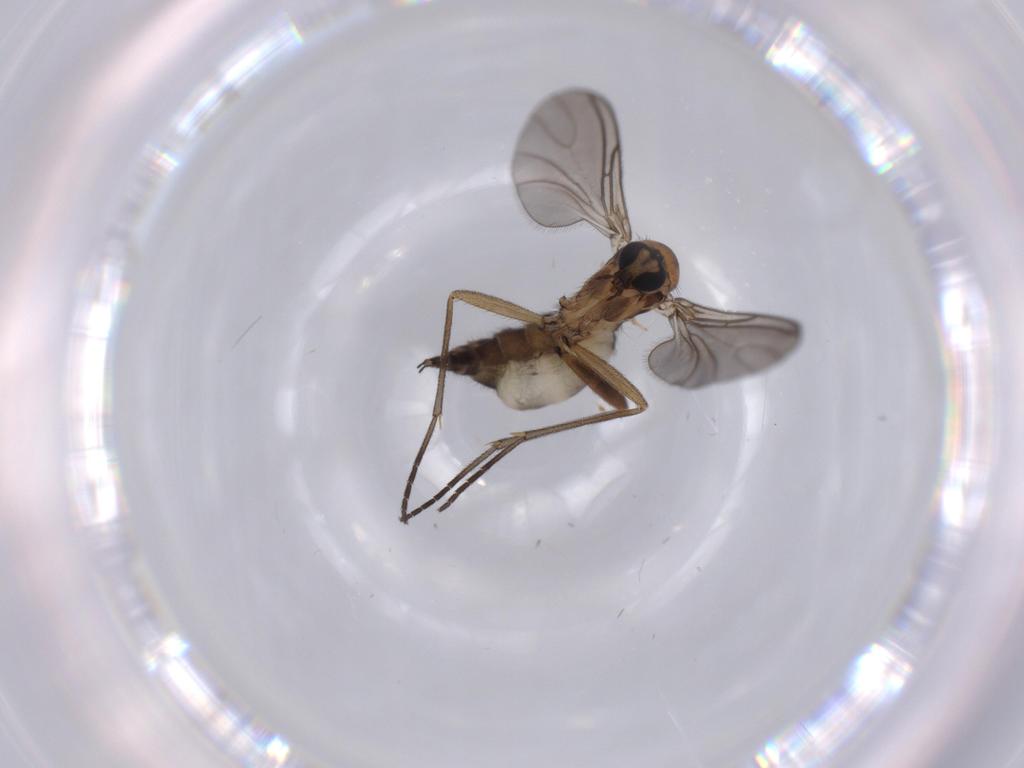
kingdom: Animalia
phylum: Arthropoda
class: Insecta
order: Diptera
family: Sciaridae
